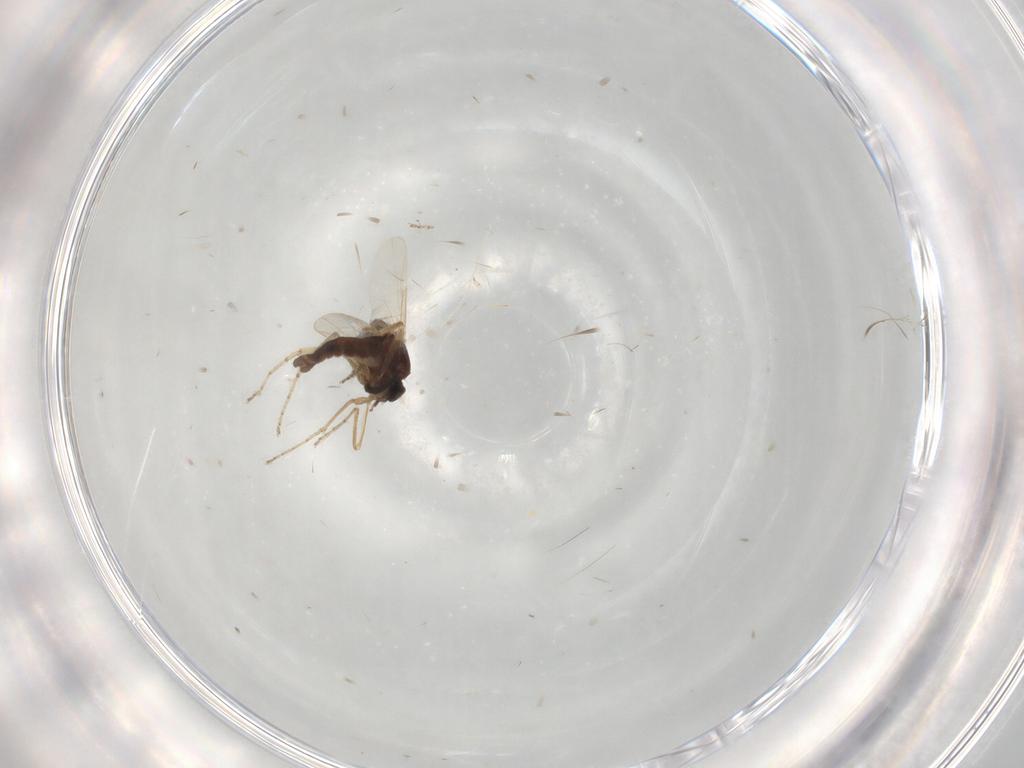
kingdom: Animalia
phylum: Arthropoda
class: Insecta
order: Diptera
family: Ceratopogonidae
